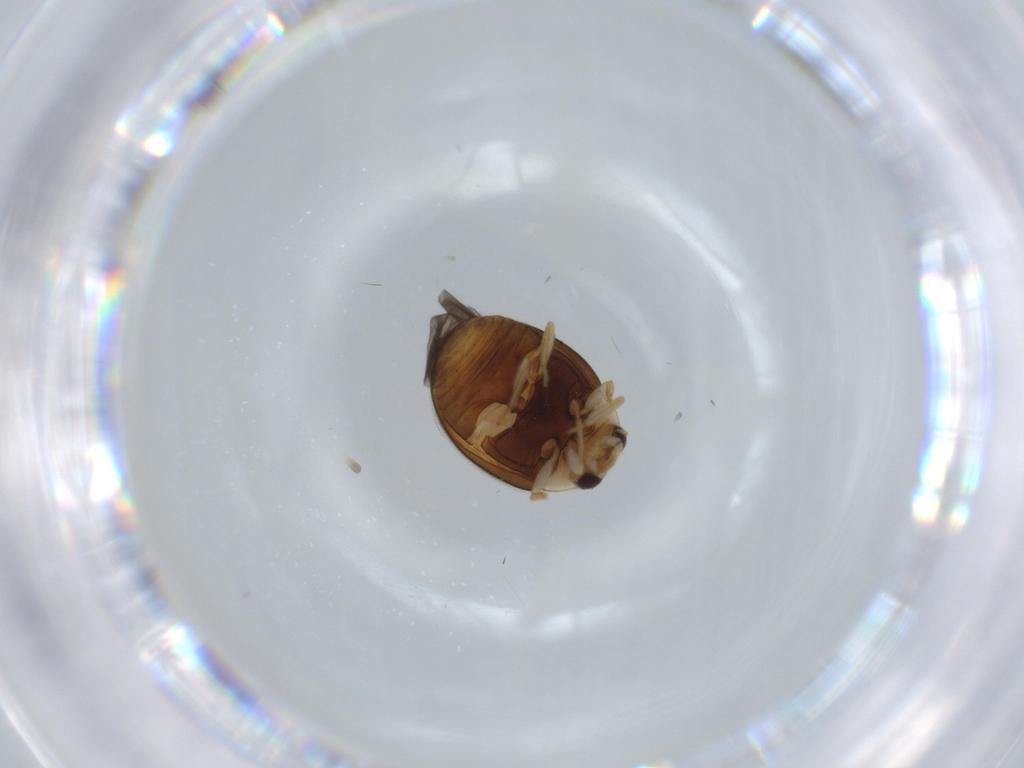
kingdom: Animalia
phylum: Arthropoda
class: Insecta
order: Coleoptera
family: Coccinellidae
